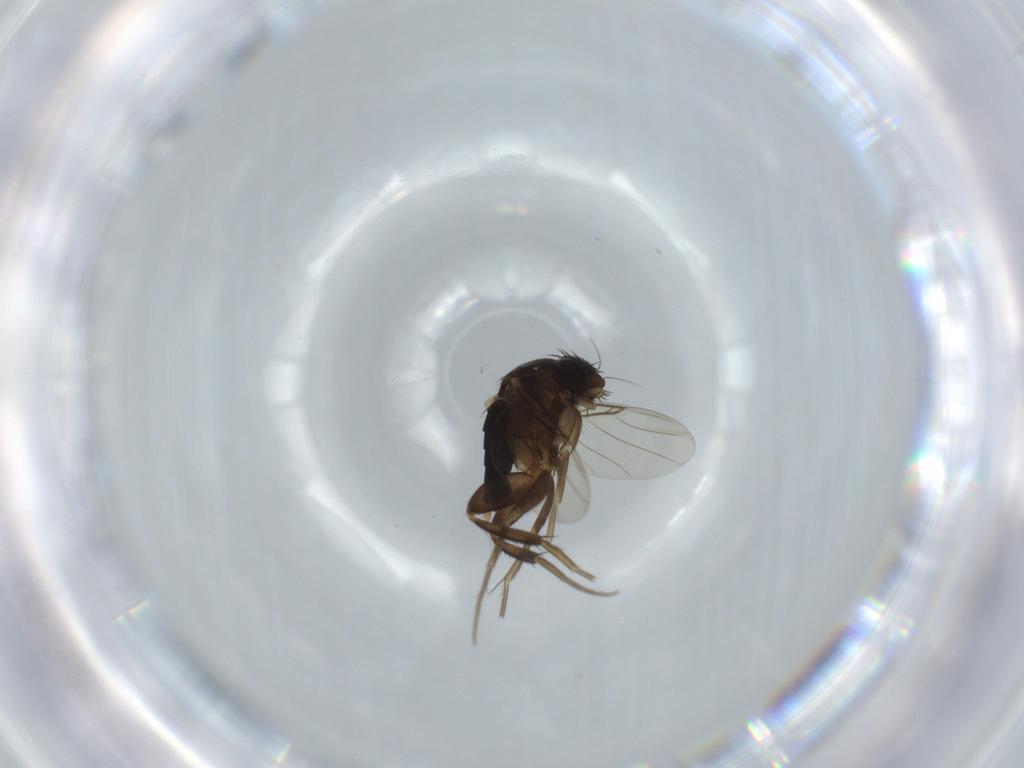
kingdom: Animalia
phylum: Arthropoda
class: Insecta
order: Diptera
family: Phoridae
